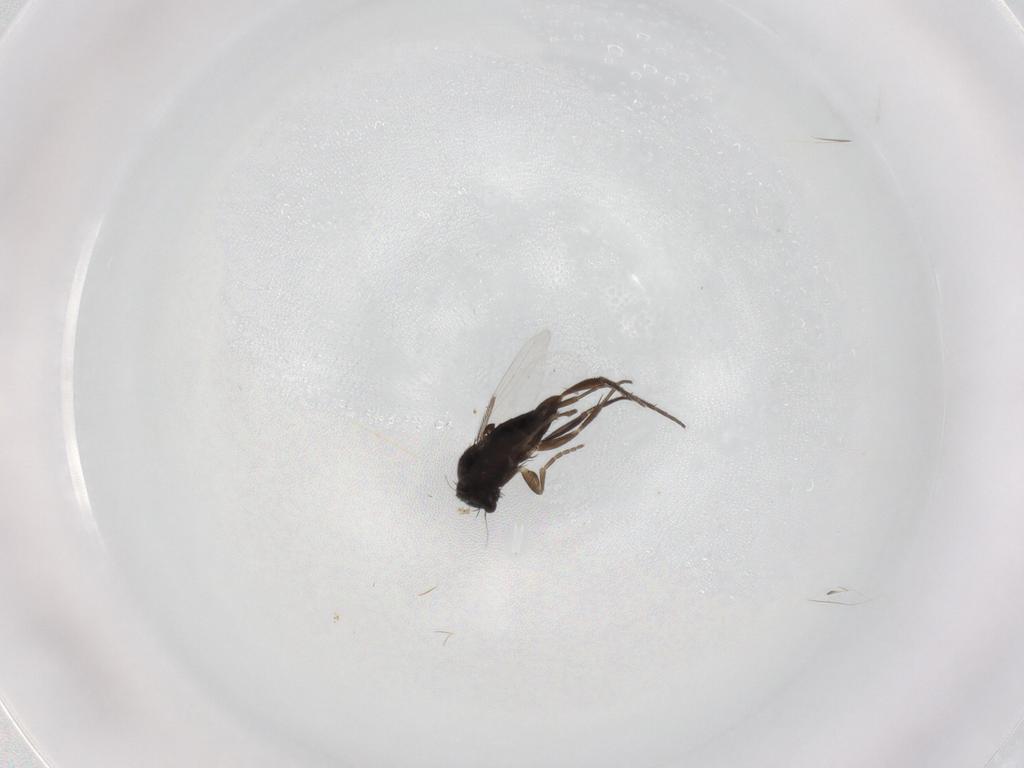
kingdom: Animalia
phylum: Arthropoda
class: Insecta
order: Diptera
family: Phoridae
